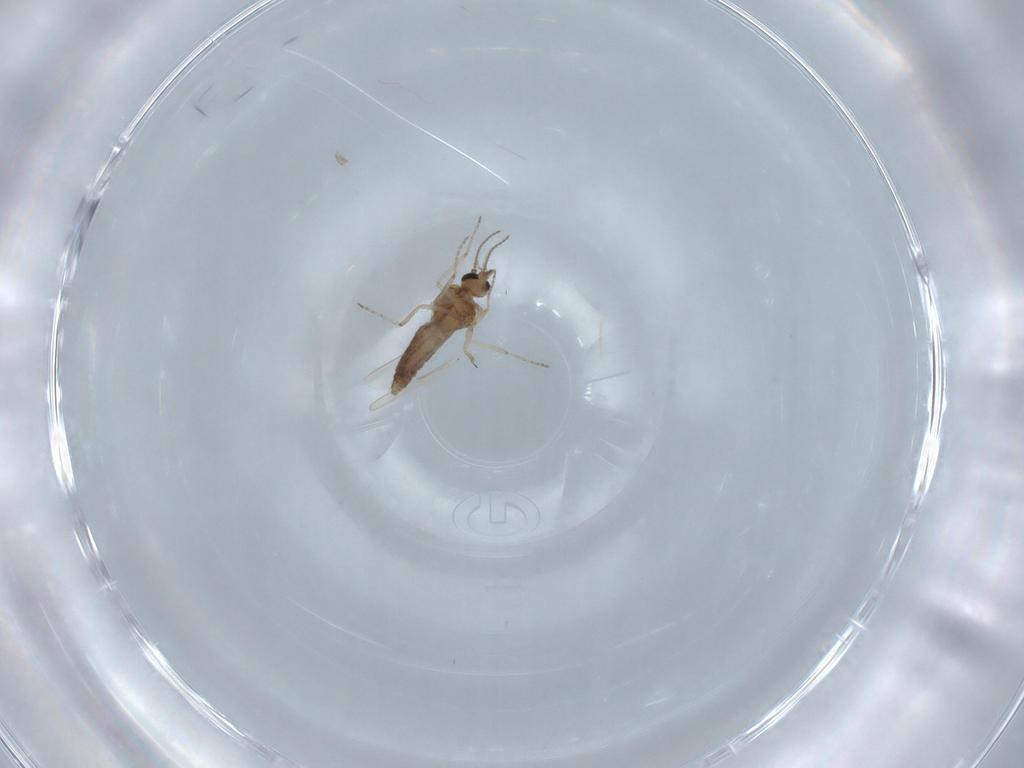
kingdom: Animalia
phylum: Arthropoda
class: Insecta
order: Diptera
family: Ceratopogonidae
